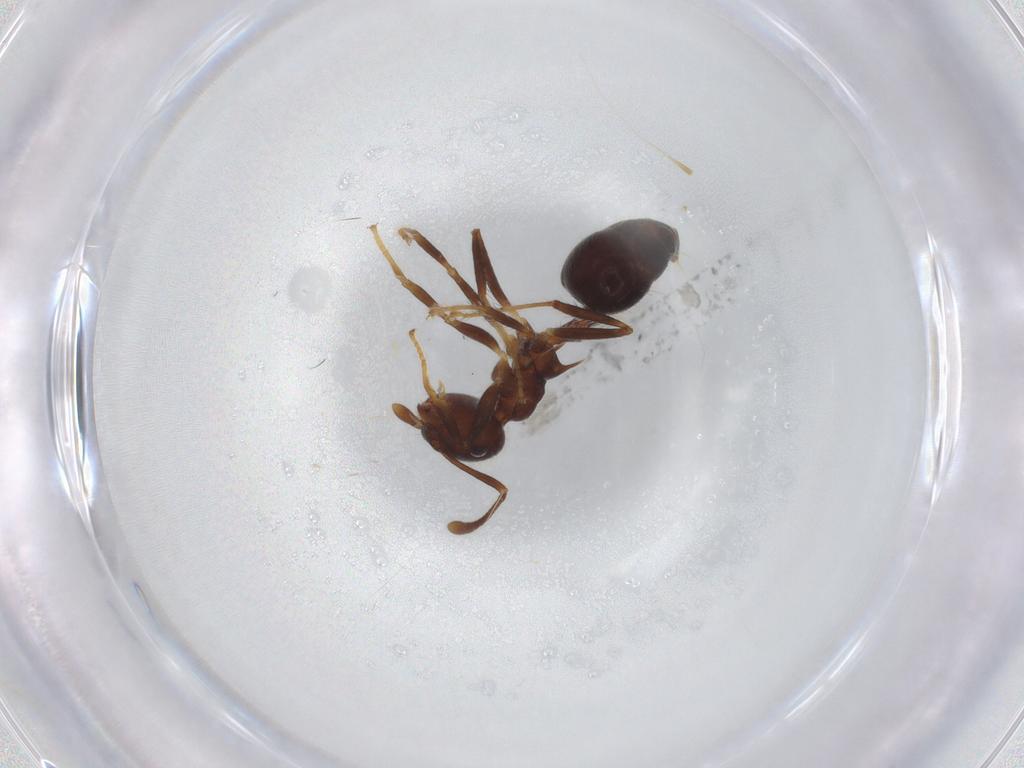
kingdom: Animalia
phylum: Arthropoda
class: Insecta
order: Hymenoptera
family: Formicidae
